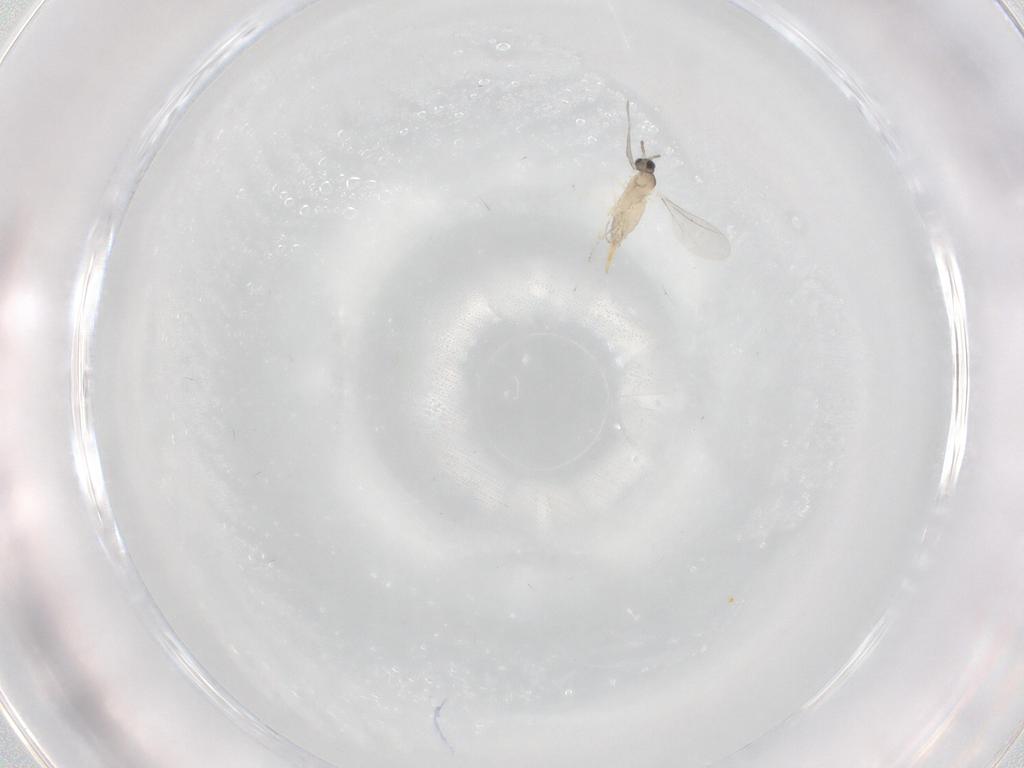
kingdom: Animalia
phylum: Arthropoda
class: Insecta
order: Diptera
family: Cecidomyiidae
